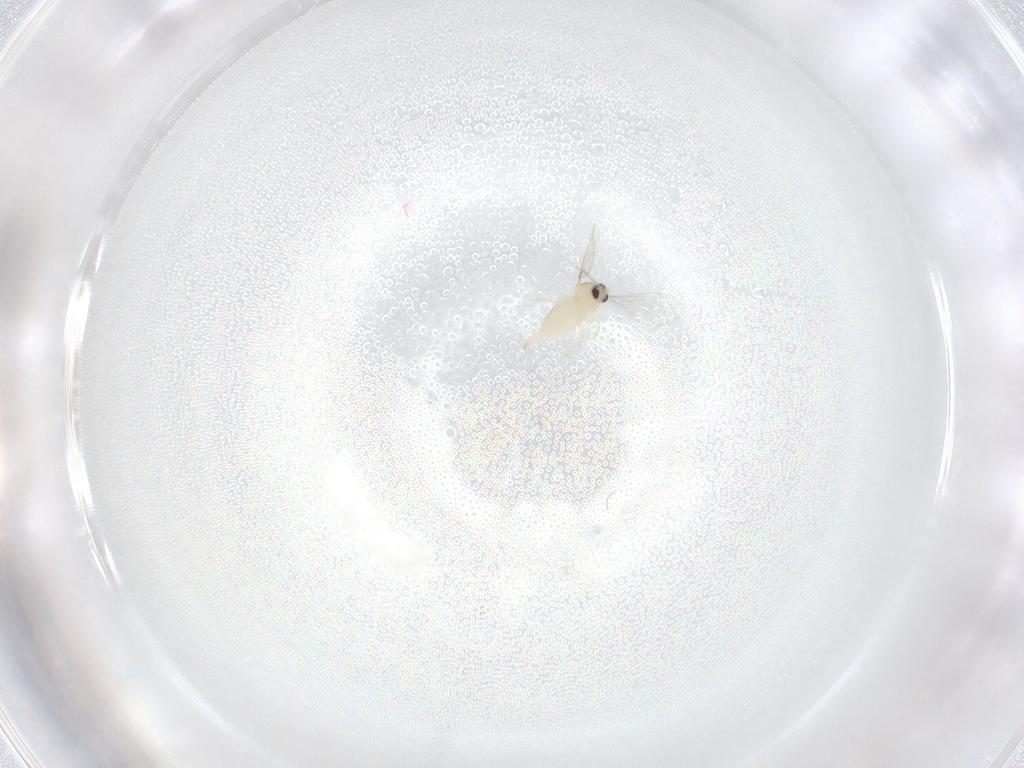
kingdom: Animalia
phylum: Arthropoda
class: Insecta
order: Diptera
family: Cecidomyiidae
